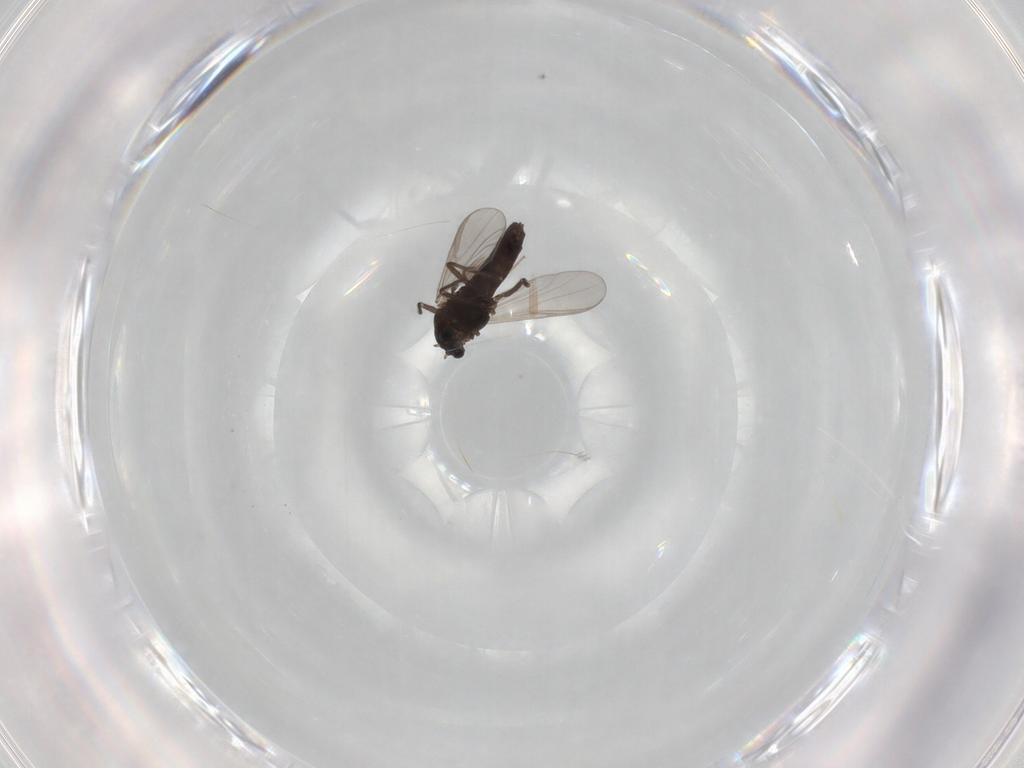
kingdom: Animalia
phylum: Arthropoda
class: Insecta
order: Diptera
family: Chironomidae
